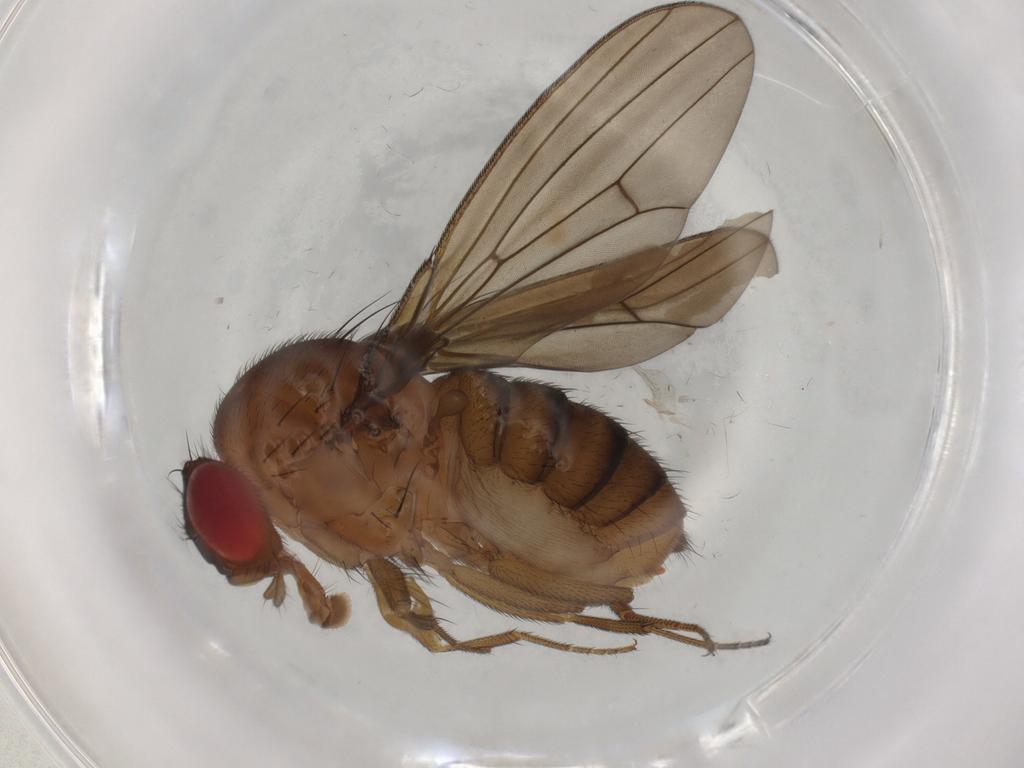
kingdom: Animalia
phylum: Arthropoda
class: Insecta
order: Diptera
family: Drosophilidae
